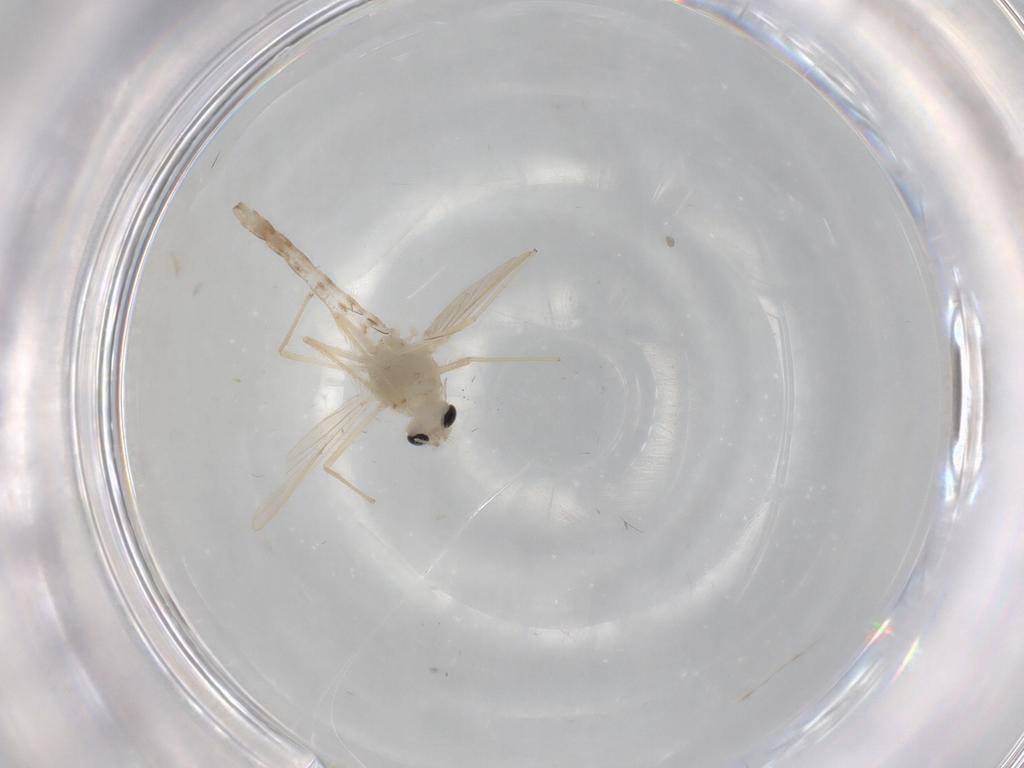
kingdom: Animalia
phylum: Arthropoda
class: Insecta
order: Diptera
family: Chironomidae
